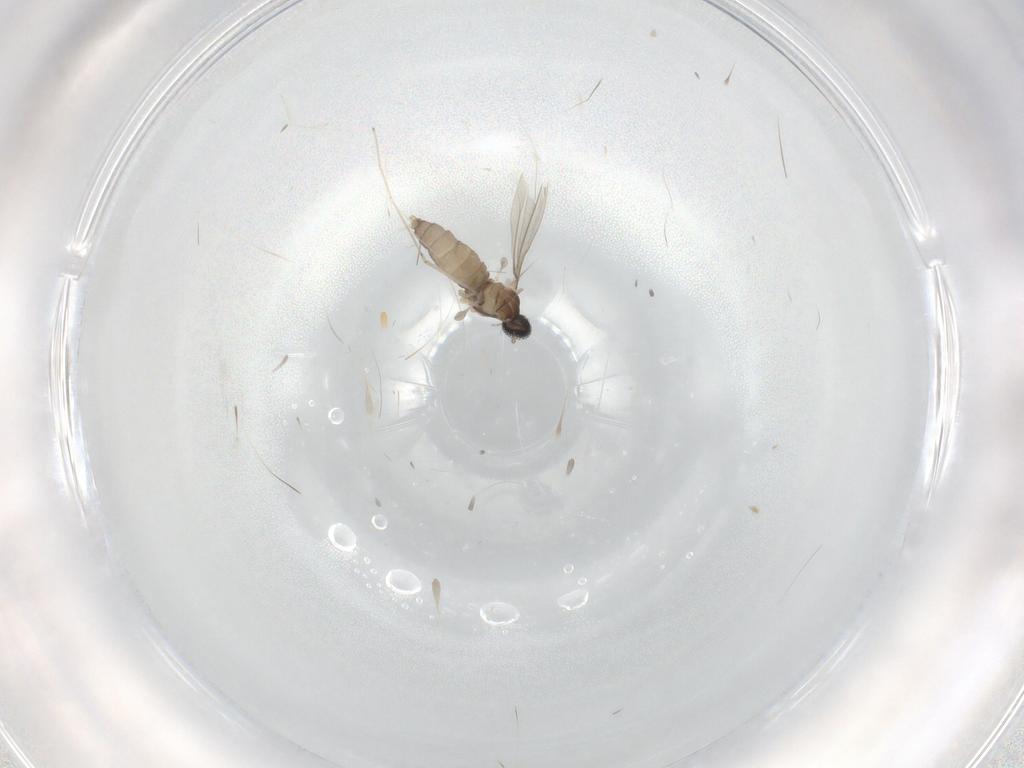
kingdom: Animalia
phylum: Arthropoda
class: Insecta
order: Diptera
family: Cecidomyiidae
